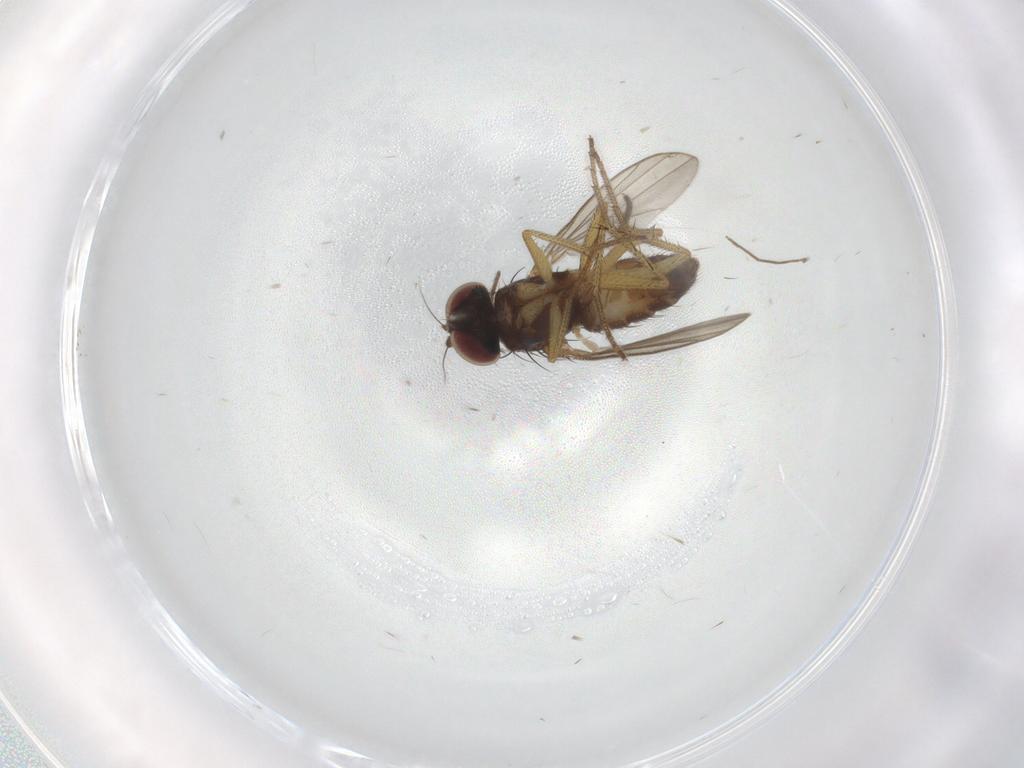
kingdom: Animalia
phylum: Arthropoda
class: Insecta
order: Diptera
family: Dolichopodidae
